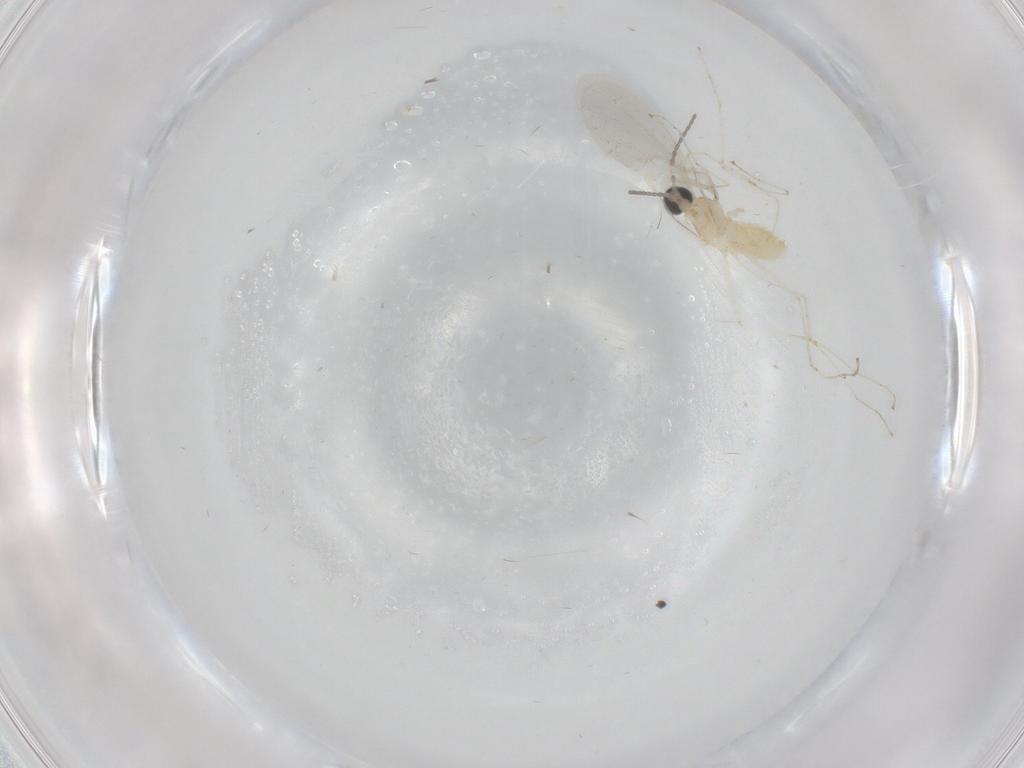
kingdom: Animalia
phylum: Arthropoda
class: Insecta
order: Diptera
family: Cecidomyiidae
